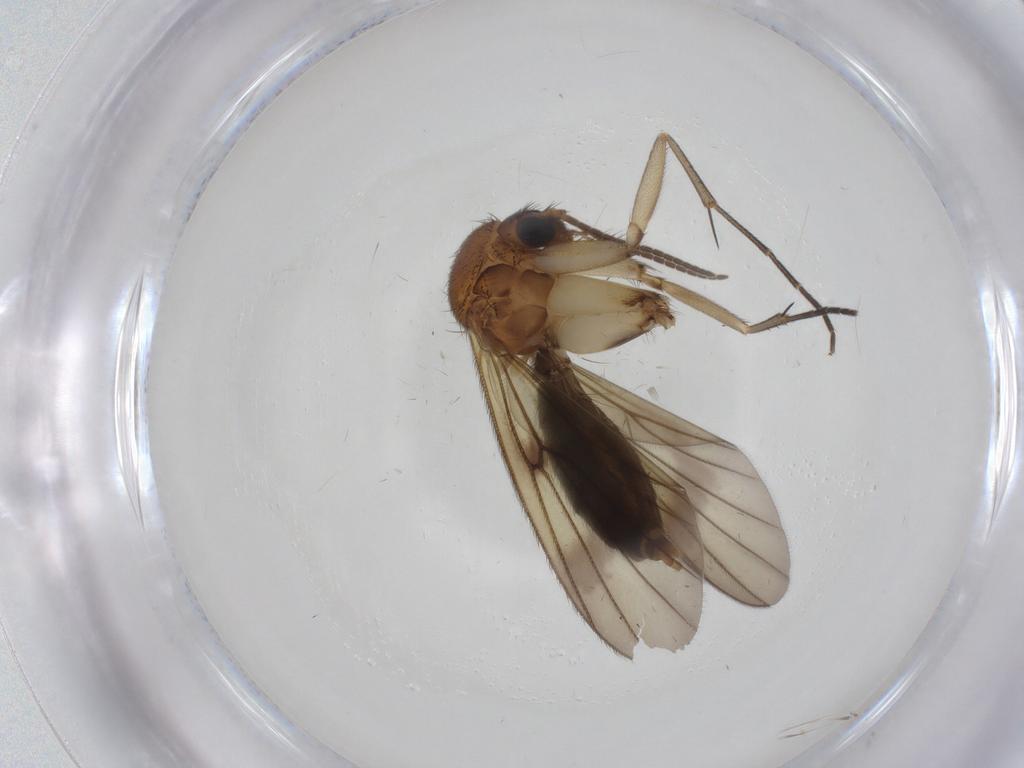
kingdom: Animalia
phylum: Arthropoda
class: Insecta
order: Diptera
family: Mycetophilidae
